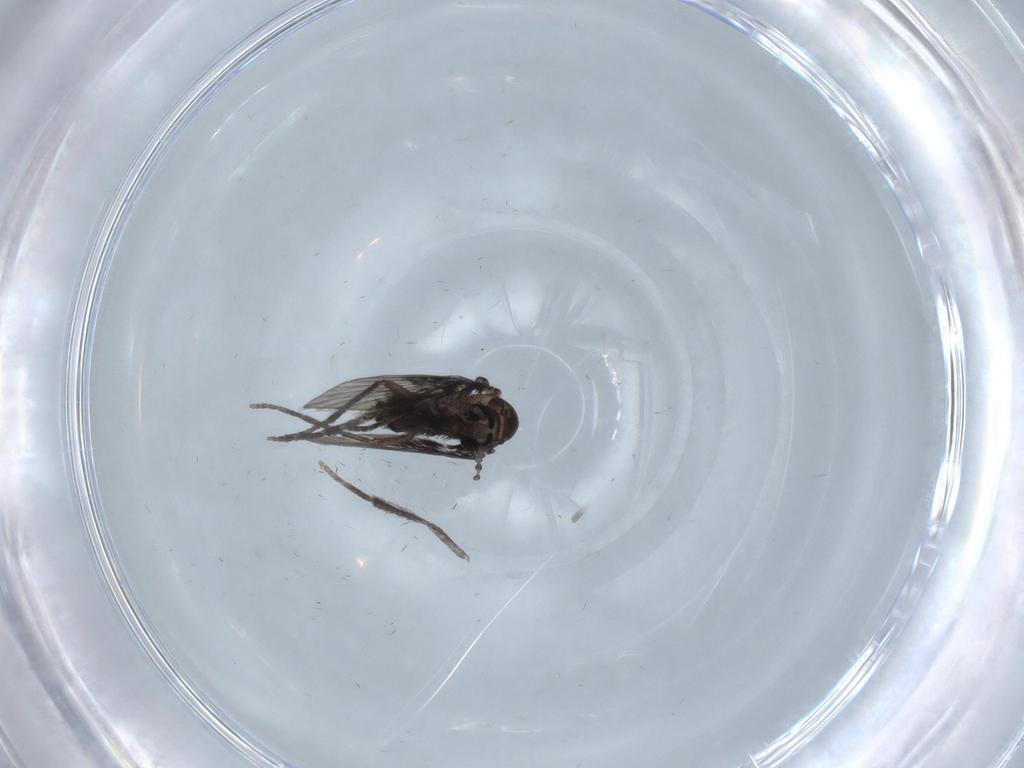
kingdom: Animalia
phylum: Arthropoda
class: Insecta
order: Diptera
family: Psychodidae
